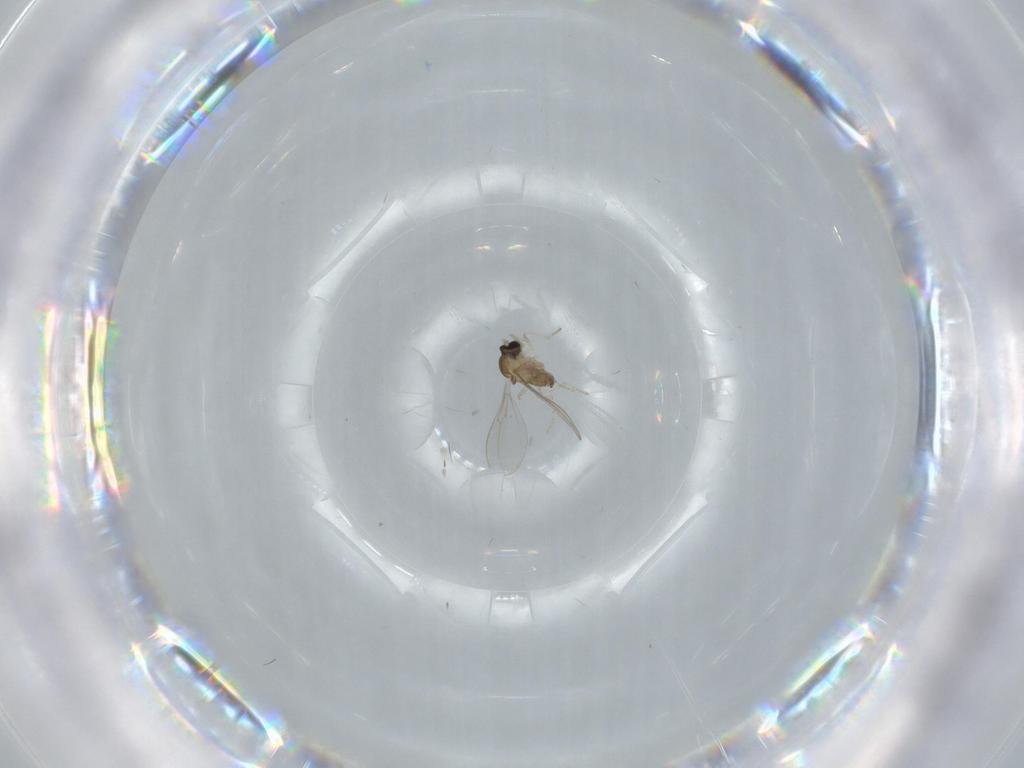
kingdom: Animalia
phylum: Arthropoda
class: Insecta
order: Diptera
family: Cecidomyiidae
